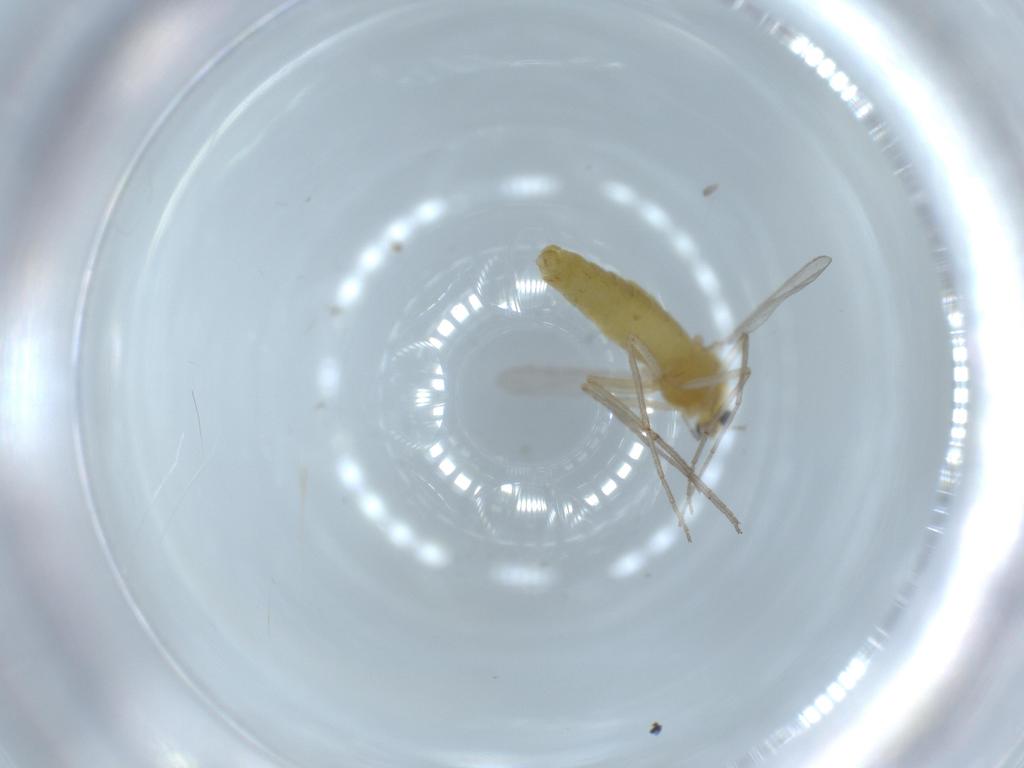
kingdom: Animalia
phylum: Arthropoda
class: Insecta
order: Diptera
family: Chironomidae
